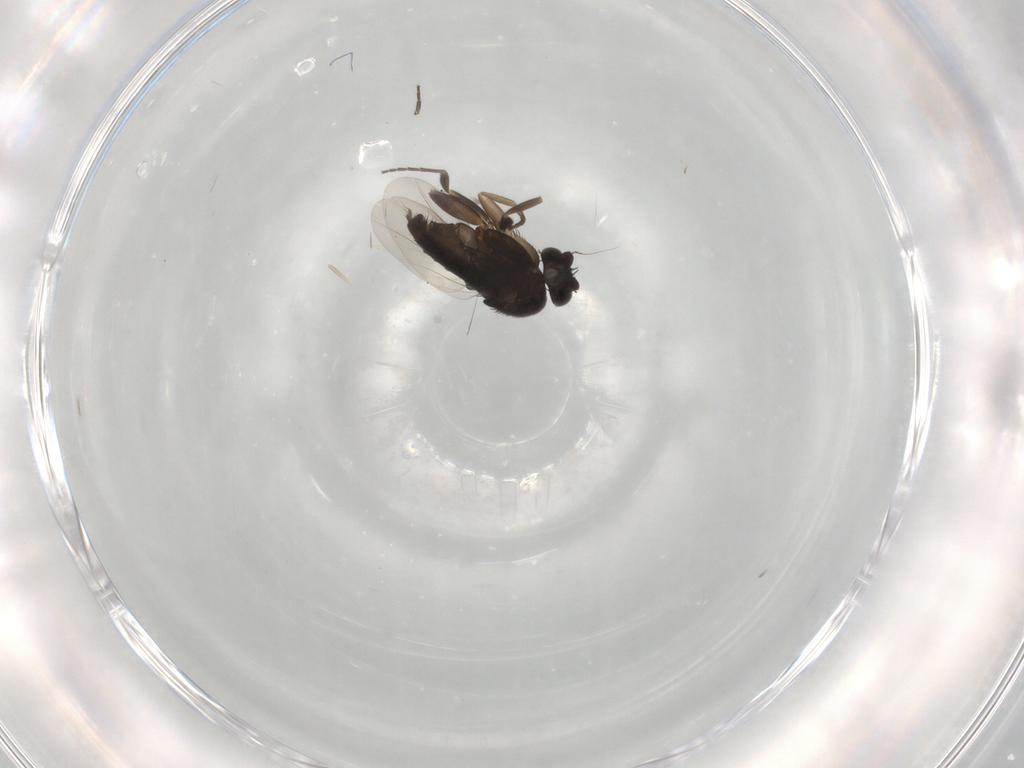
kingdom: Animalia
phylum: Arthropoda
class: Insecta
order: Diptera
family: Phoridae
